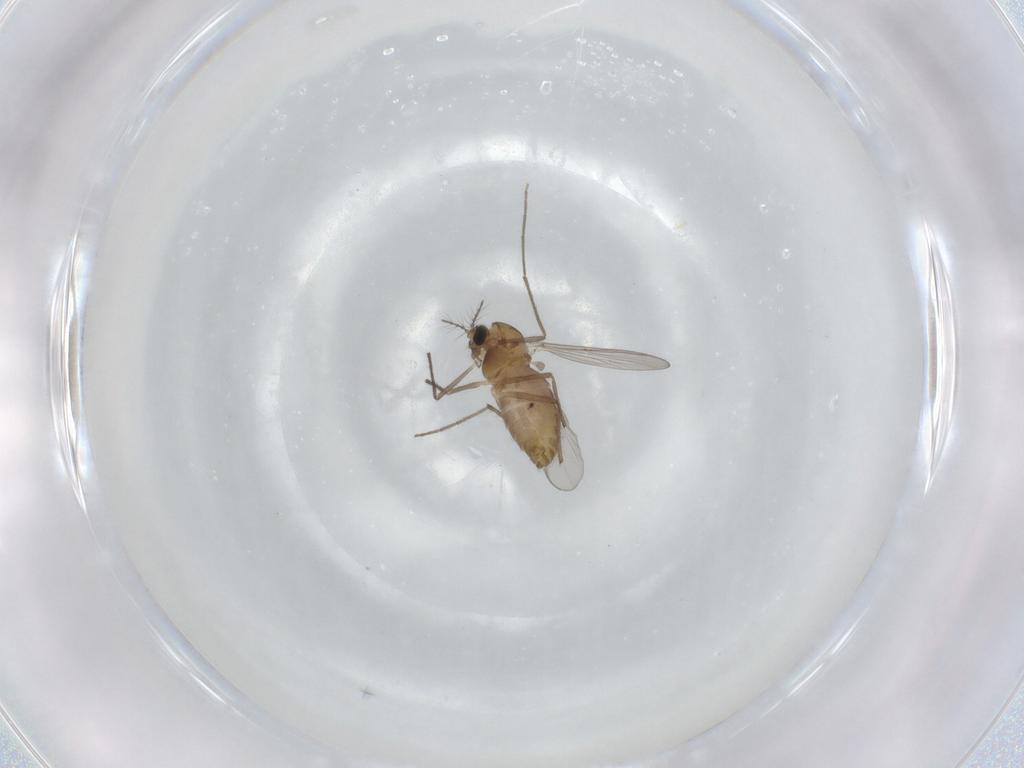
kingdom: Animalia
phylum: Arthropoda
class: Insecta
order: Diptera
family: Chironomidae
